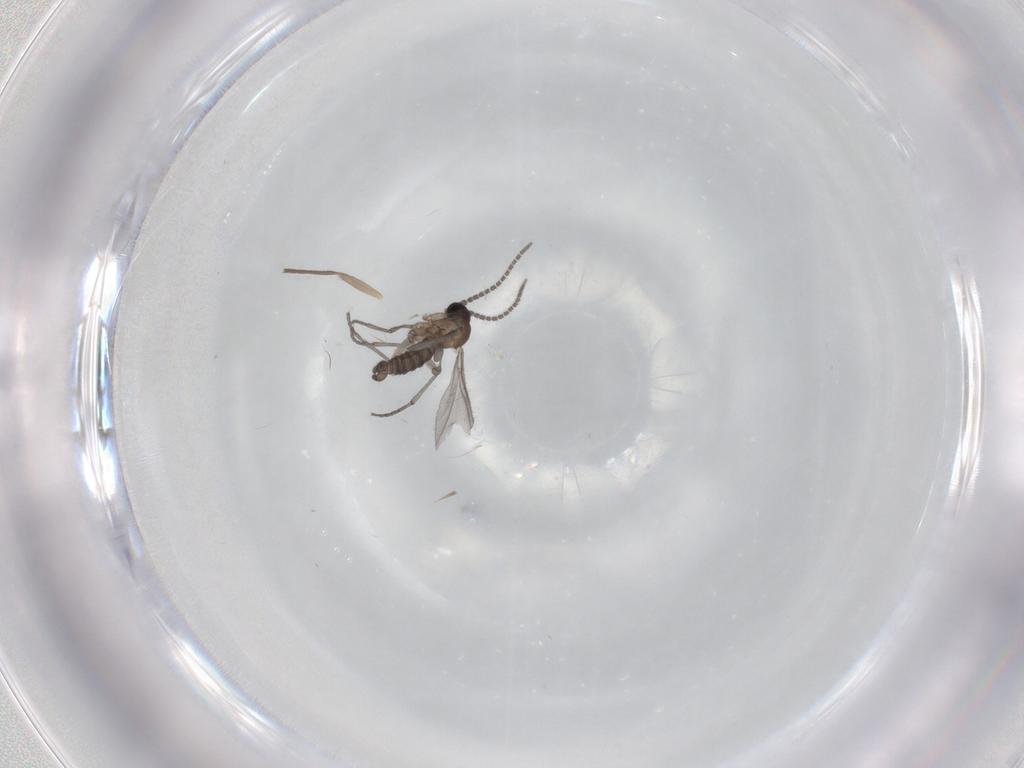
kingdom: Animalia
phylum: Arthropoda
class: Insecta
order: Diptera
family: Sciaridae
